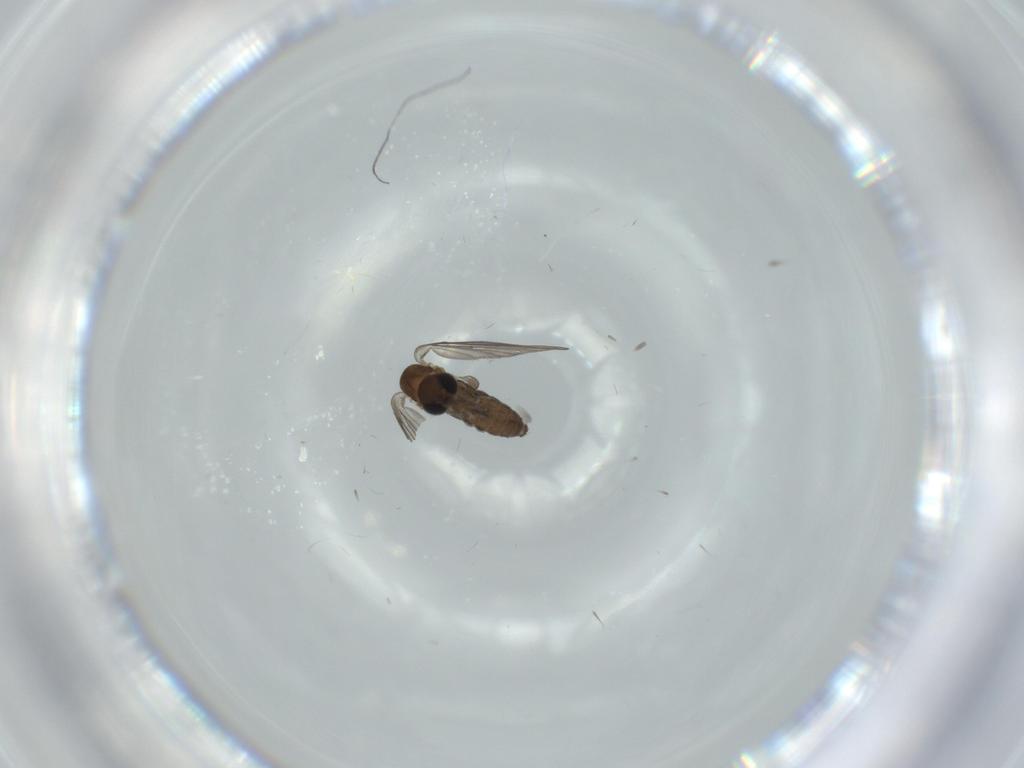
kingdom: Animalia
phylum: Arthropoda
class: Insecta
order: Diptera
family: Psychodidae
